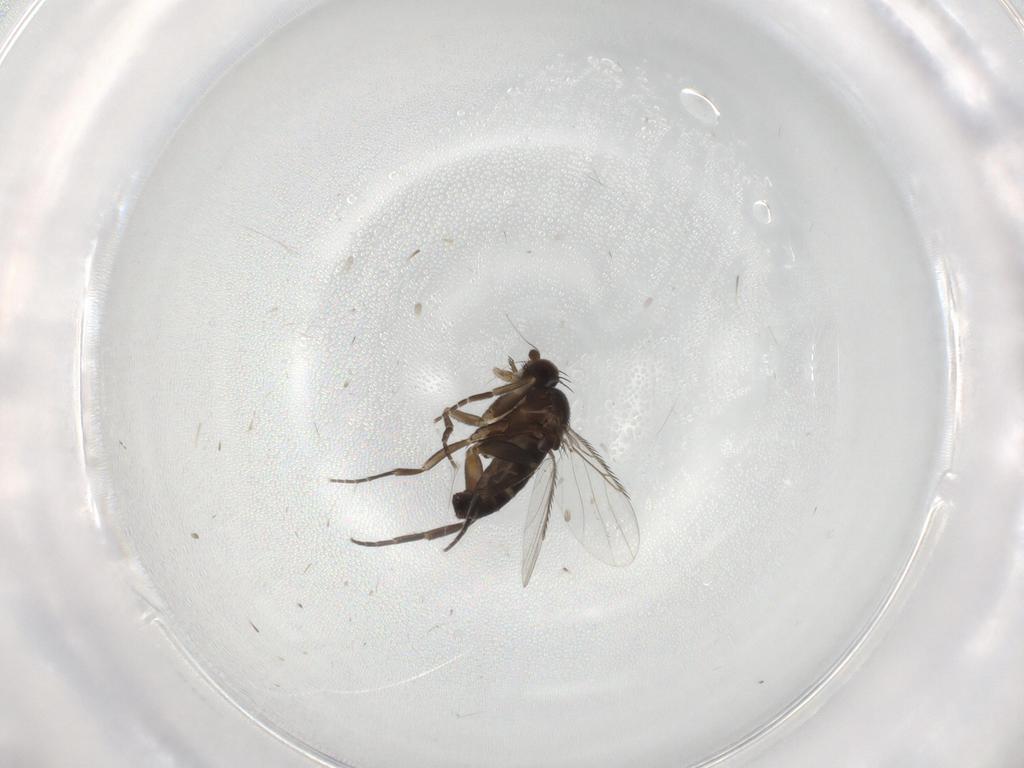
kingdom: Animalia
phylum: Arthropoda
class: Insecta
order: Diptera
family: Phoridae
